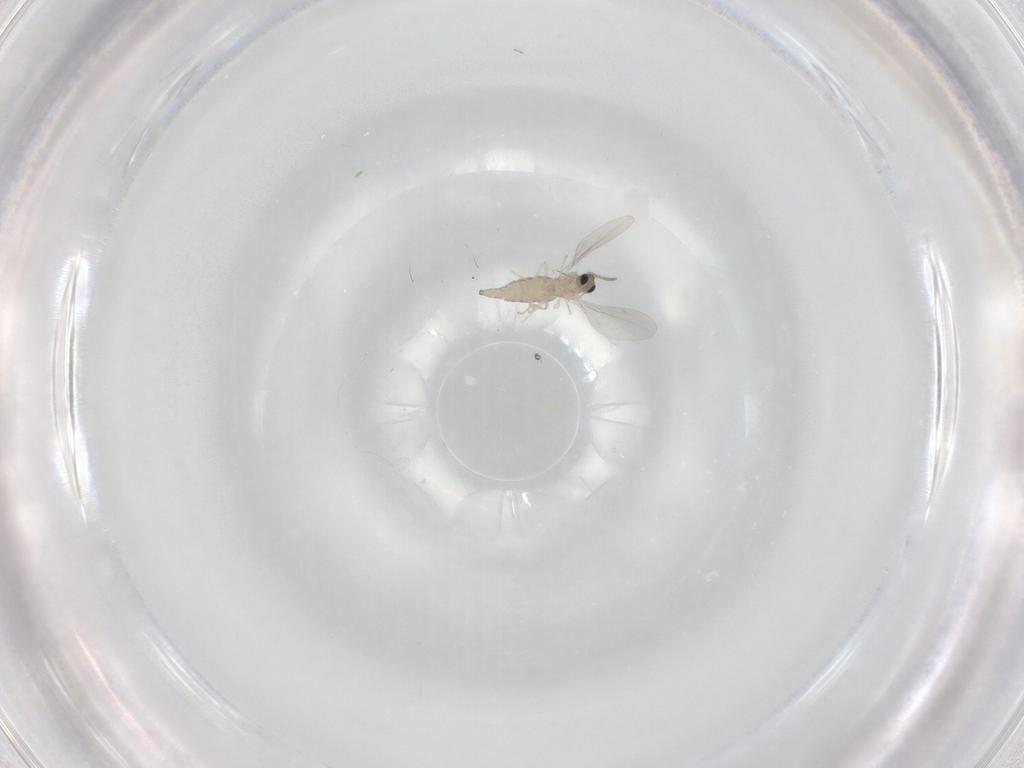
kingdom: Animalia
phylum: Arthropoda
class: Insecta
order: Diptera
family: Cecidomyiidae
